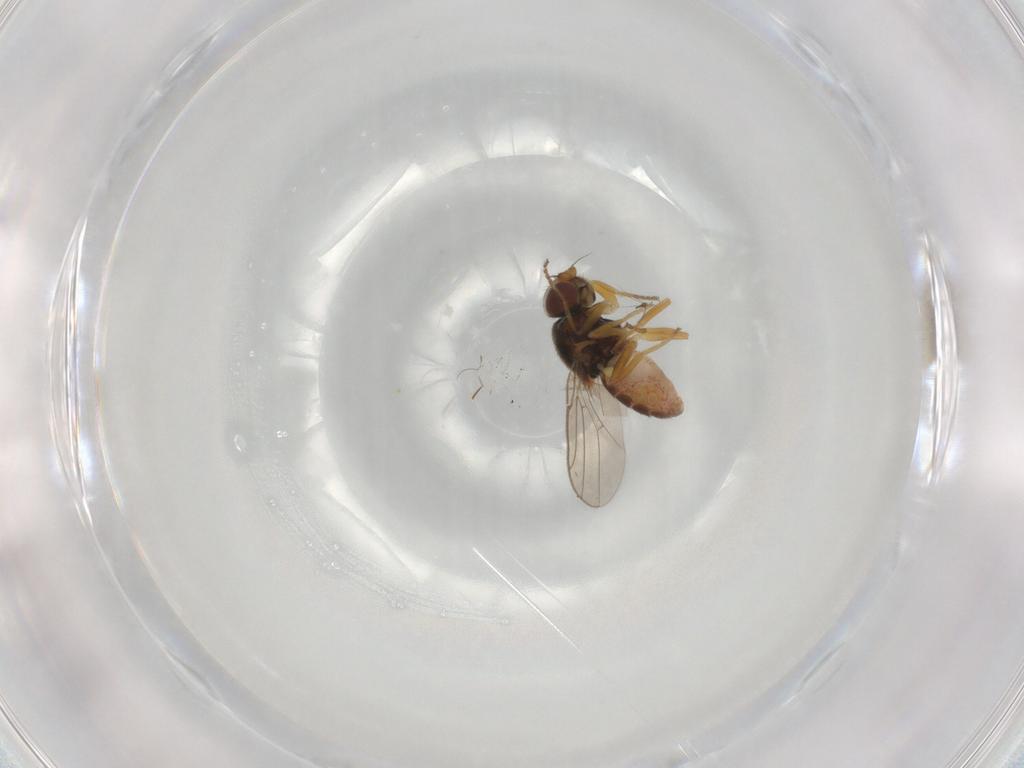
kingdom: Animalia
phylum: Arthropoda
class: Insecta
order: Diptera
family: Chloropidae
